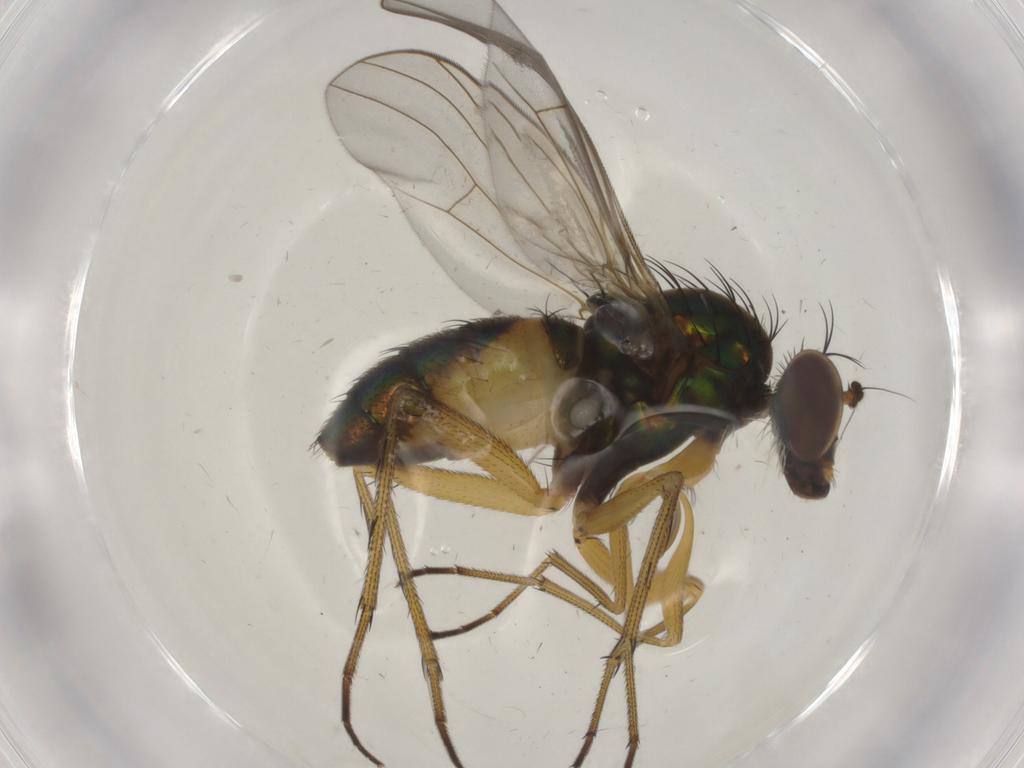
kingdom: Animalia
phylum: Arthropoda
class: Insecta
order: Diptera
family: Dolichopodidae
